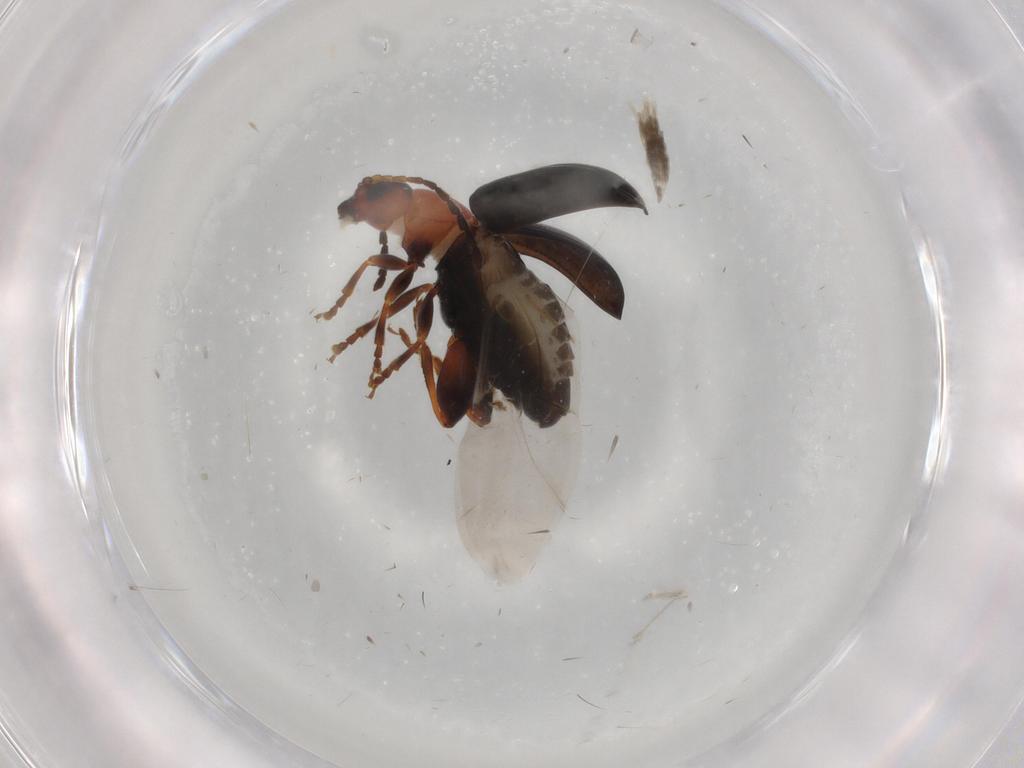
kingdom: Animalia
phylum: Arthropoda
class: Insecta
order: Coleoptera
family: Chrysomelidae
